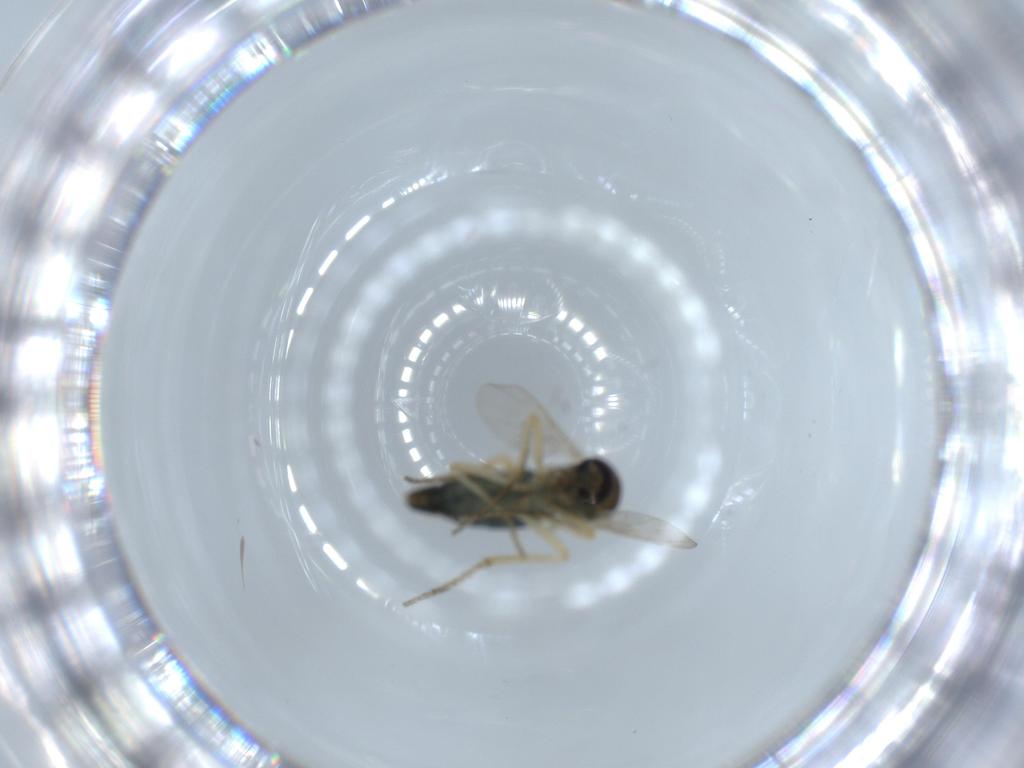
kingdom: Animalia
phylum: Arthropoda
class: Insecta
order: Diptera
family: Ceratopogonidae
